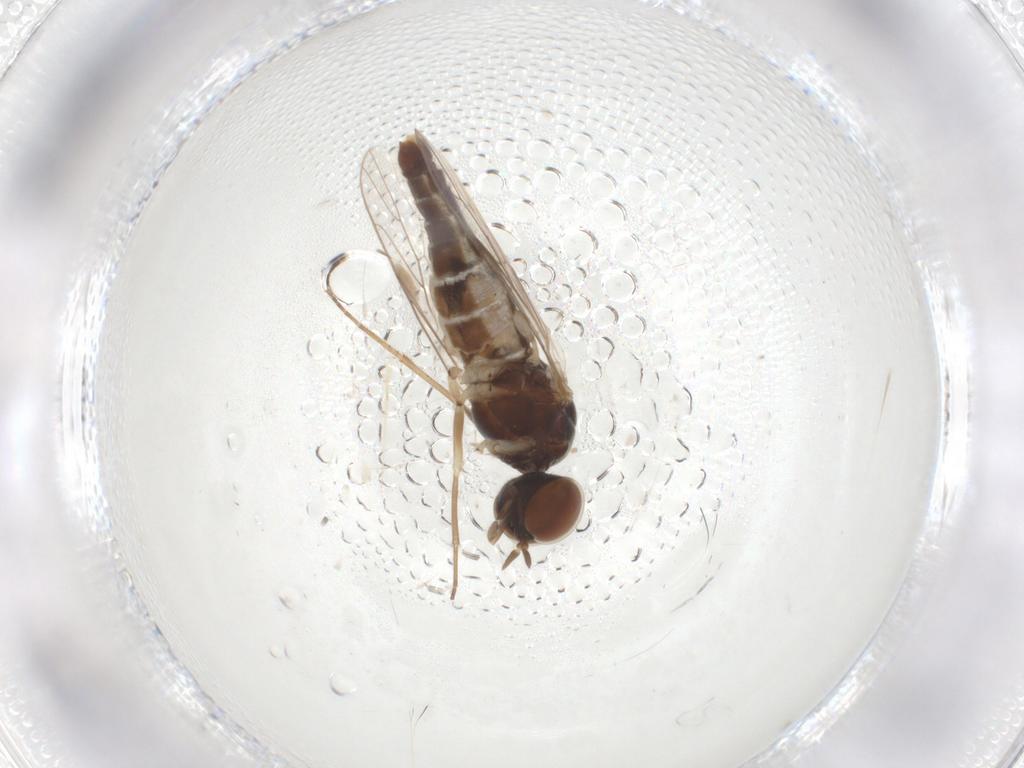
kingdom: Animalia
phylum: Arthropoda
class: Insecta
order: Diptera
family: Scenopinidae
